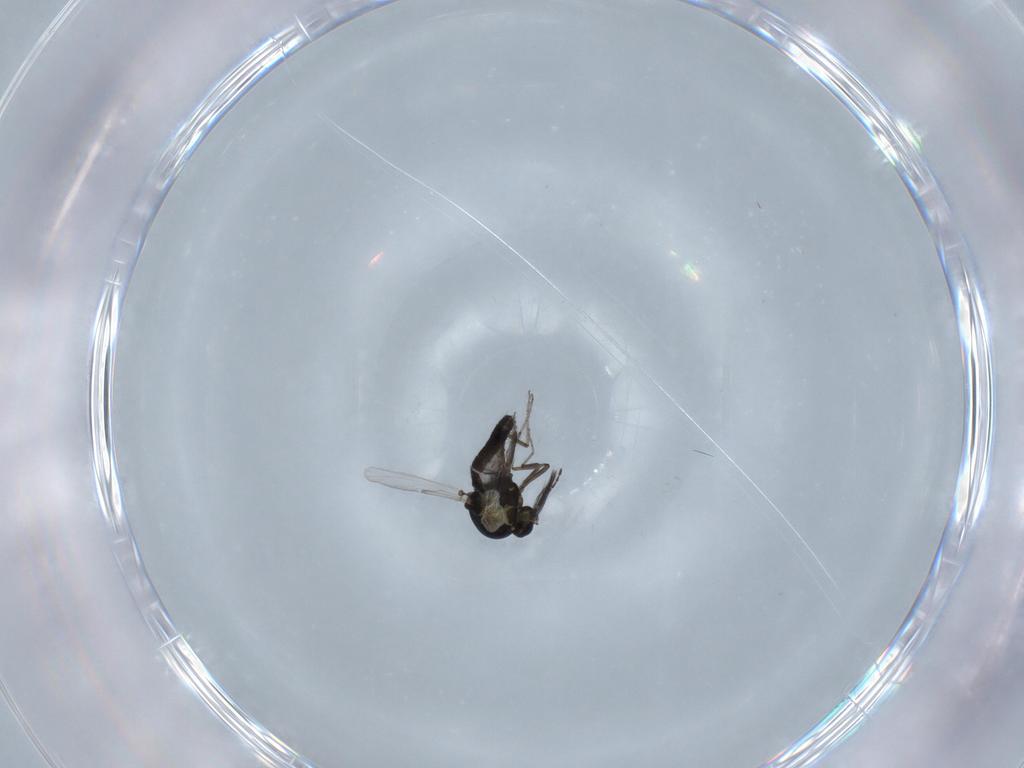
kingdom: Animalia
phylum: Arthropoda
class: Insecta
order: Diptera
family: Ceratopogonidae
